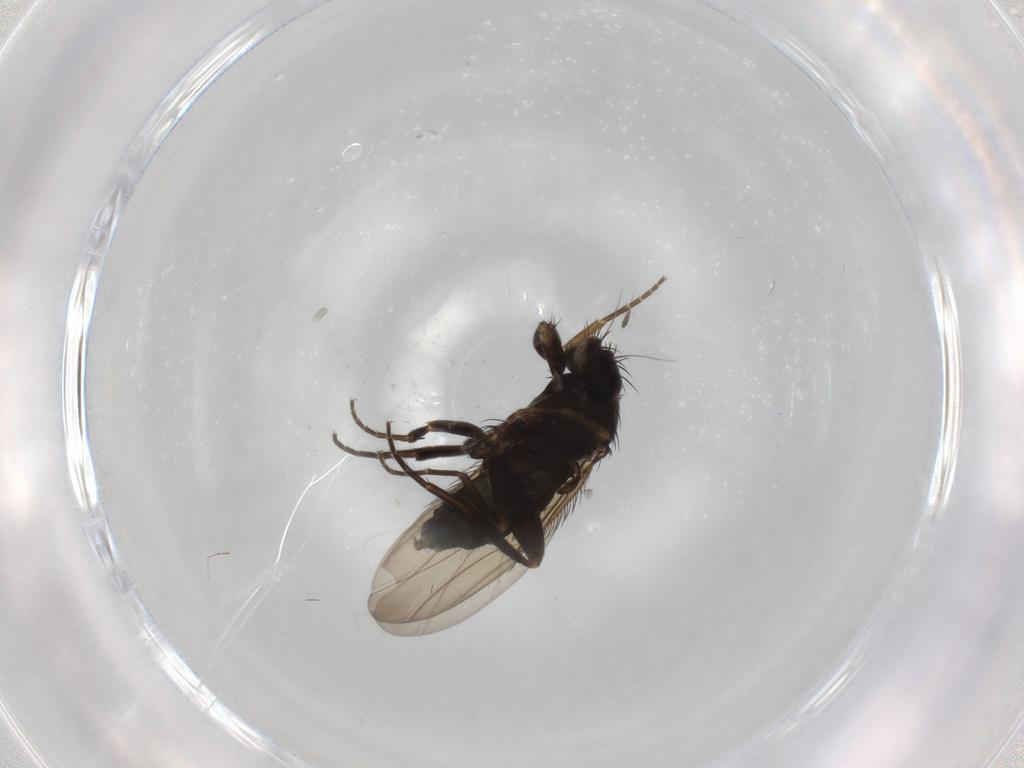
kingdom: Animalia
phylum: Arthropoda
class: Insecta
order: Diptera
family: Phoridae
